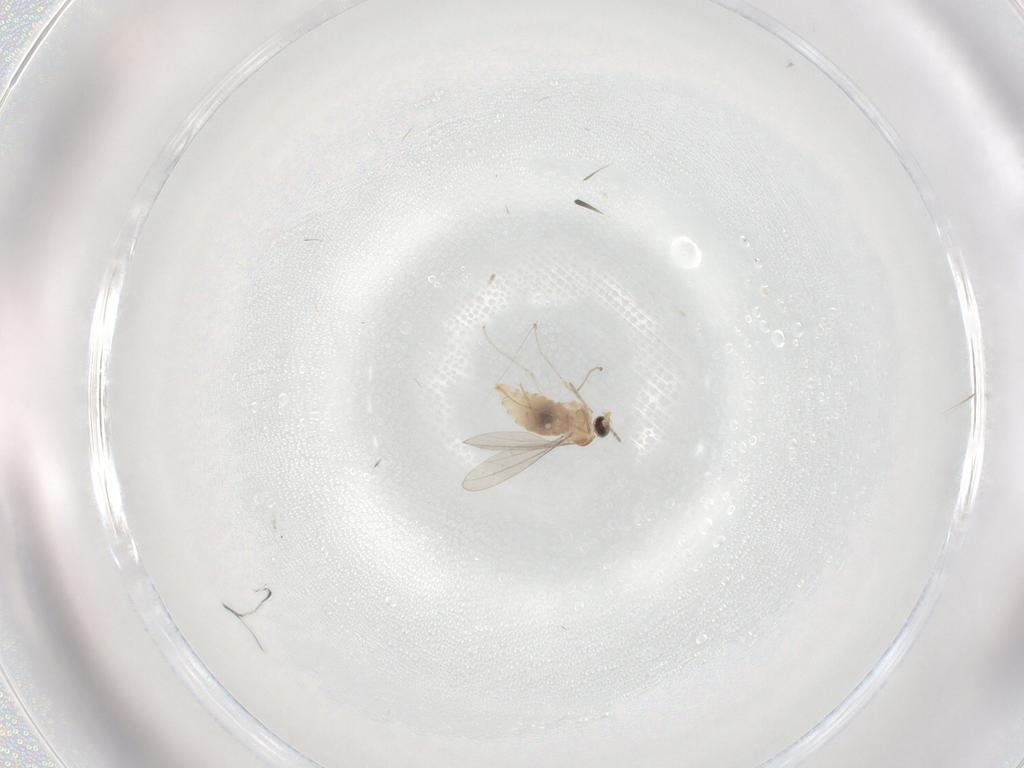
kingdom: Animalia
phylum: Arthropoda
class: Insecta
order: Diptera
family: Cecidomyiidae
